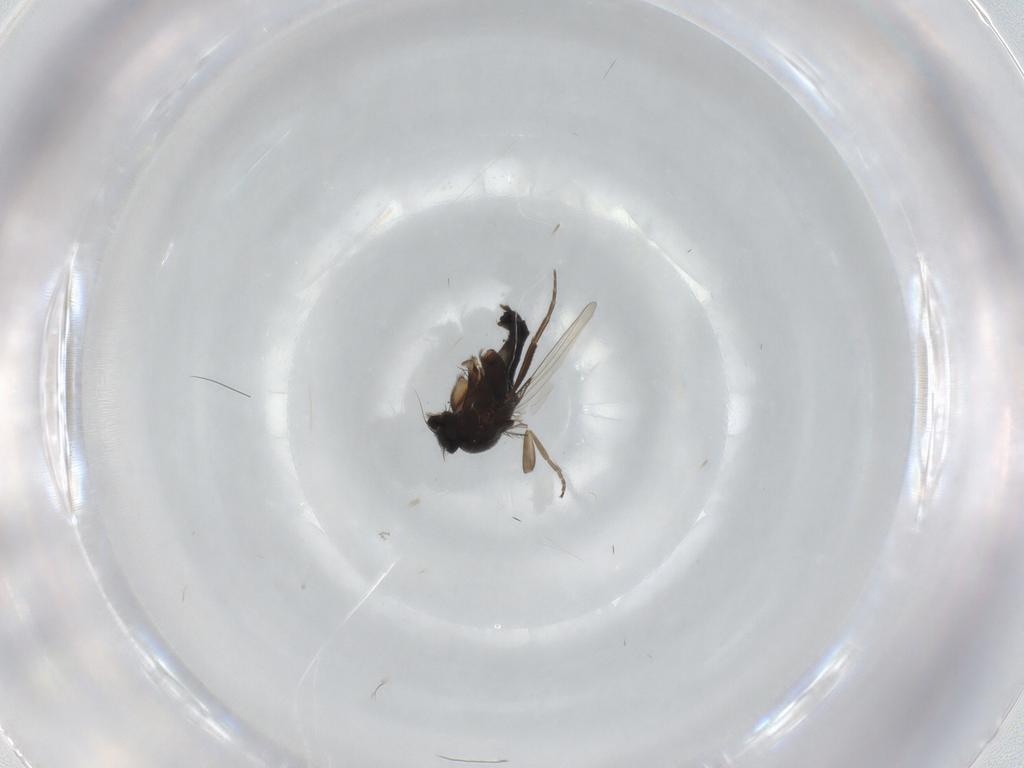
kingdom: Animalia
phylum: Arthropoda
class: Insecta
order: Diptera
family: Phoridae
